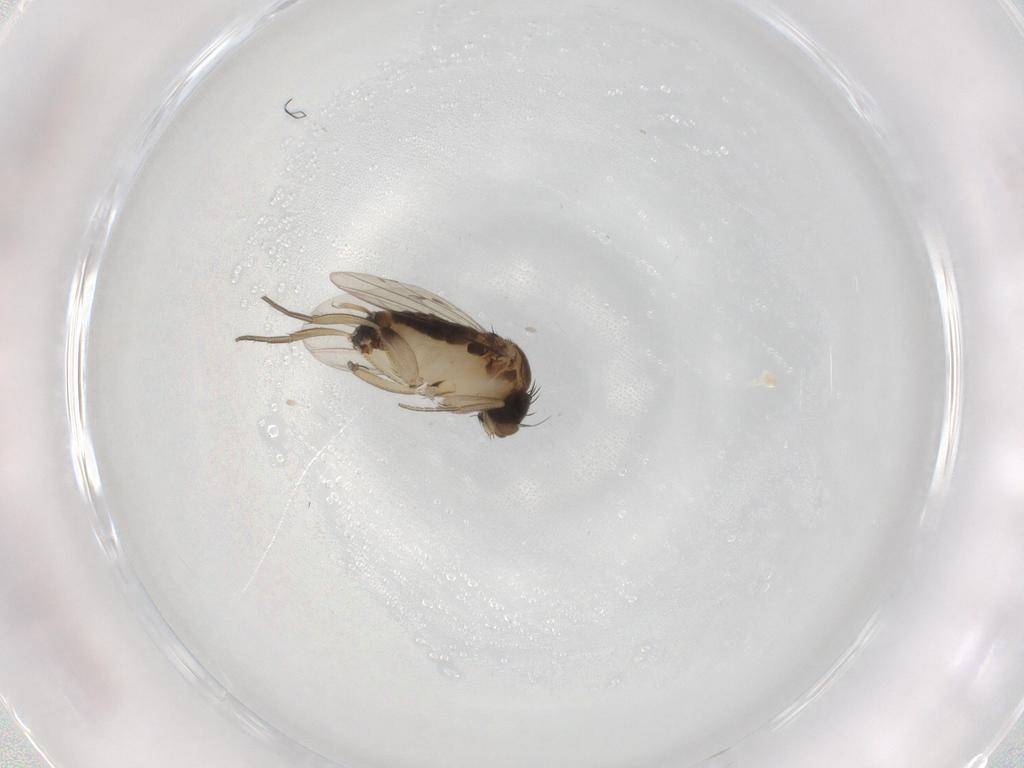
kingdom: Animalia
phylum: Arthropoda
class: Insecta
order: Diptera
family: Phoridae
